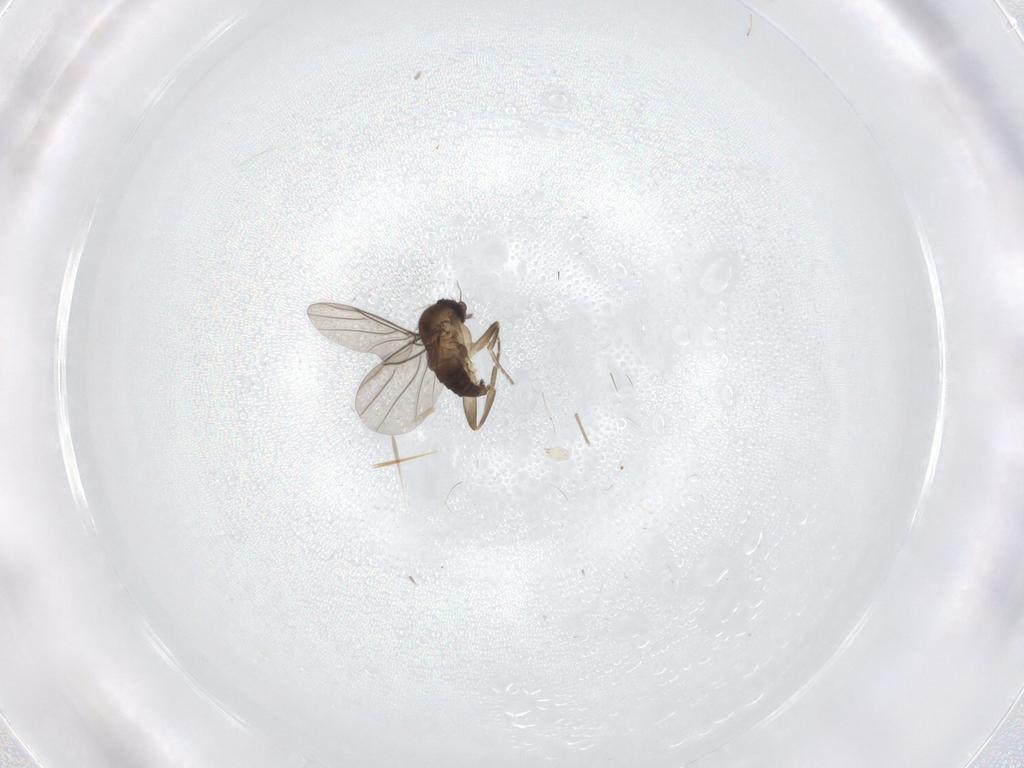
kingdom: Animalia
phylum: Arthropoda
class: Insecta
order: Diptera
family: Phoridae
